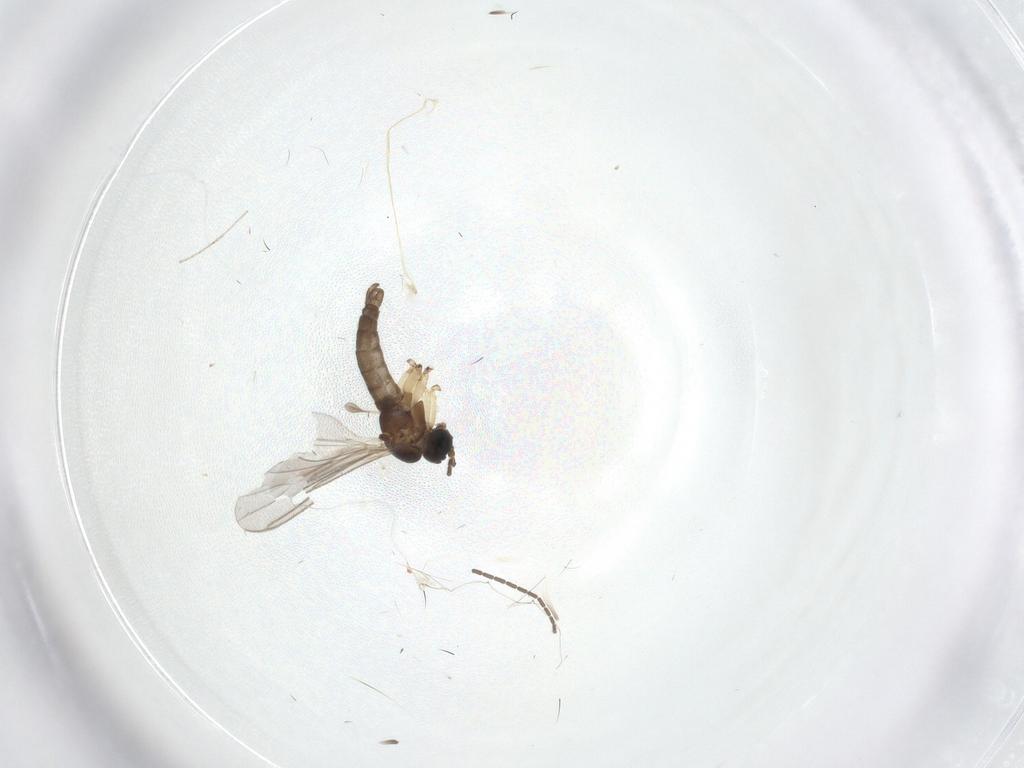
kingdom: Animalia
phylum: Arthropoda
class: Insecta
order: Diptera
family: Sciaridae
